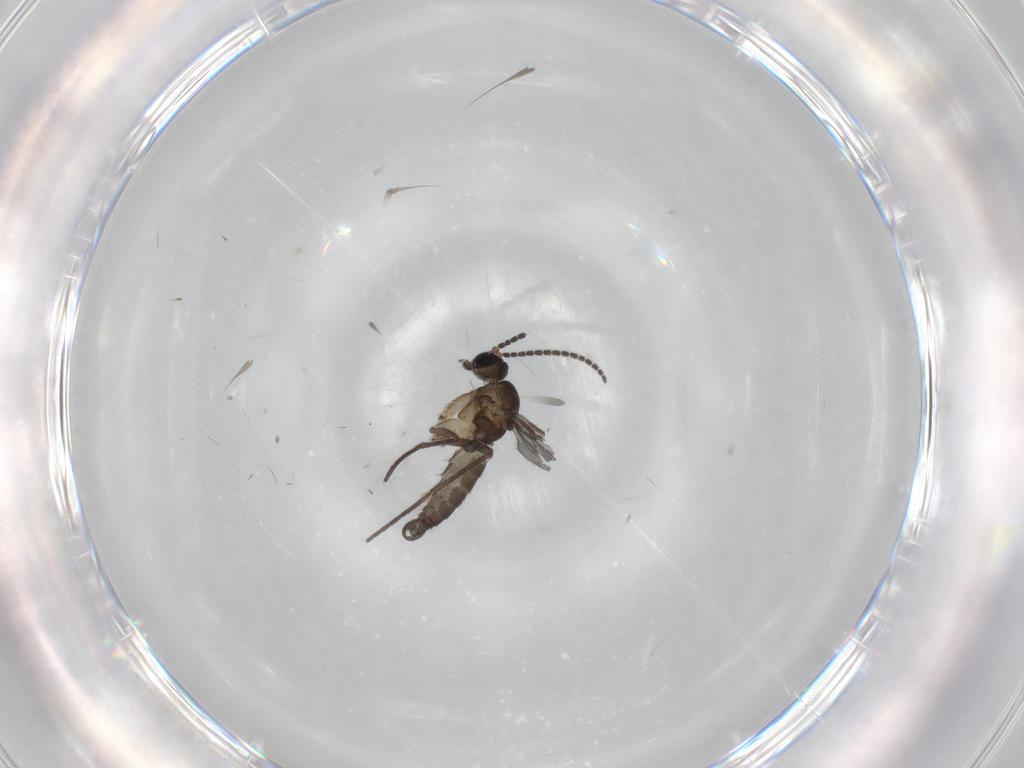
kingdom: Animalia
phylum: Arthropoda
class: Insecta
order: Diptera
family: Sciaridae
